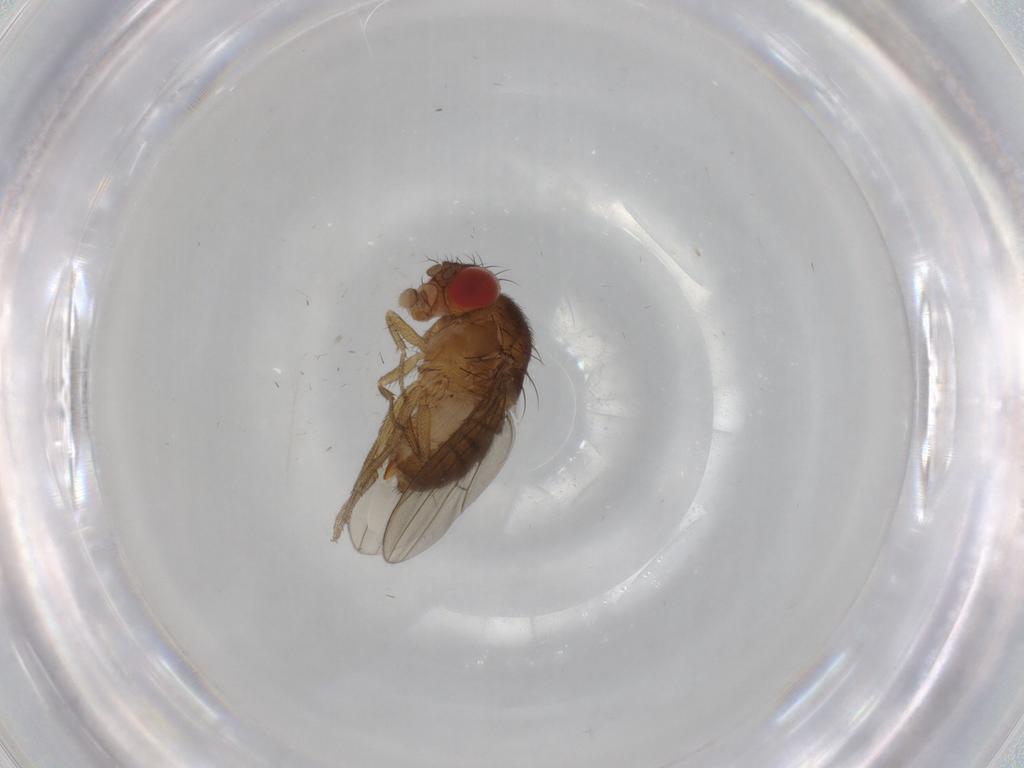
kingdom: Animalia
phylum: Arthropoda
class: Insecta
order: Diptera
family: Drosophilidae
